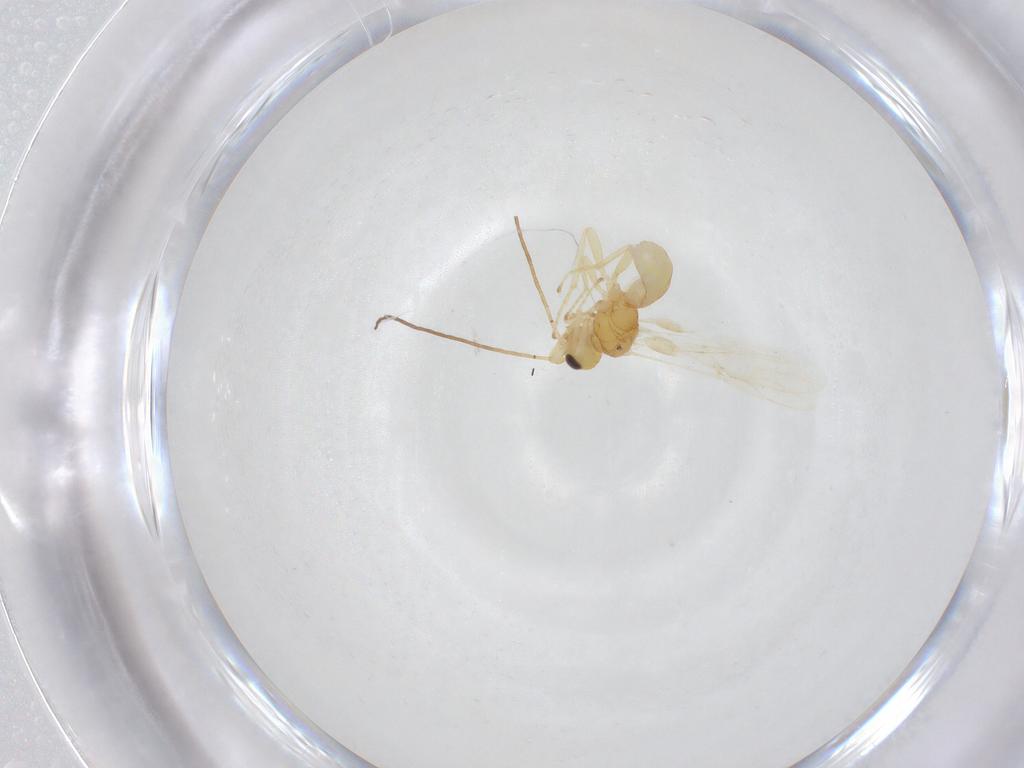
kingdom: Animalia
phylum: Arthropoda
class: Insecta
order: Hymenoptera
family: Braconidae
